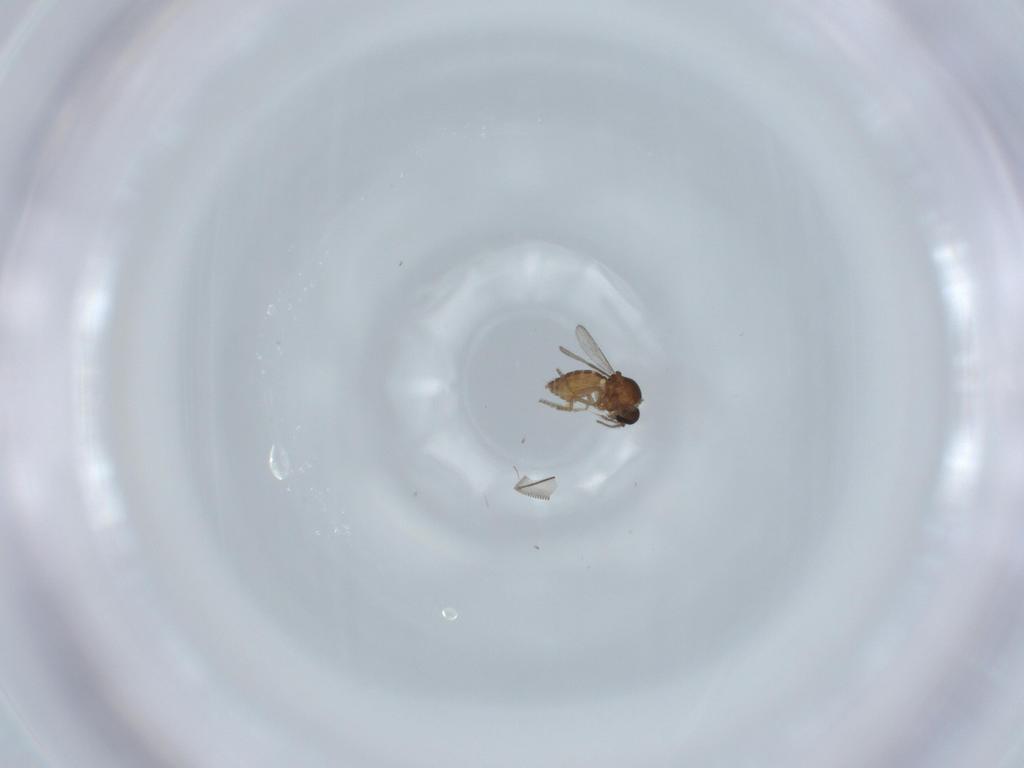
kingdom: Animalia
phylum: Arthropoda
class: Insecta
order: Diptera
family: Ceratopogonidae
